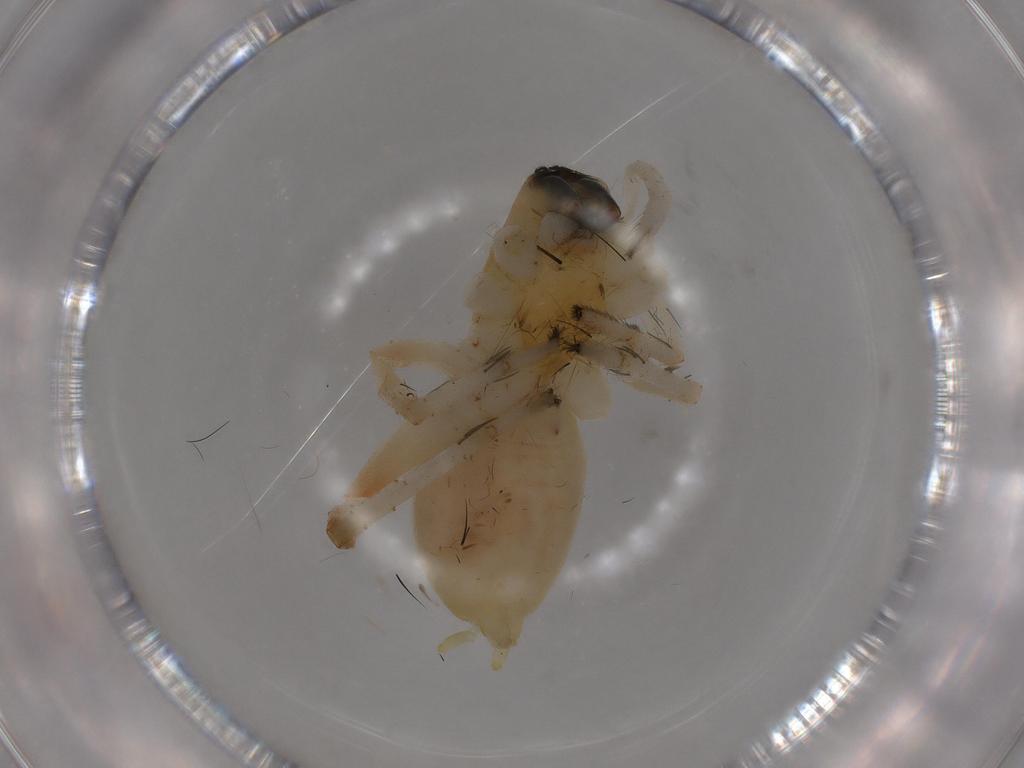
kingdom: Animalia
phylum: Arthropoda
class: Arachnida
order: Araneae
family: Anyphaenidae
